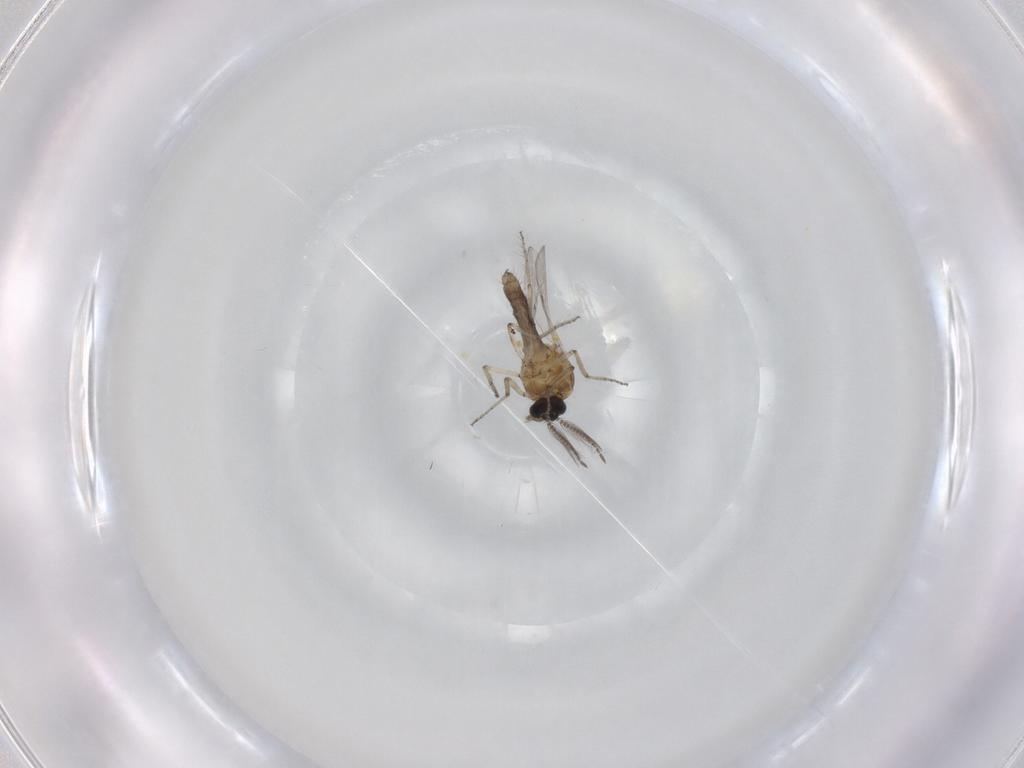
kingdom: Animalia
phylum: Arthropoda
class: Insecta
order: Diptera
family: Ceratopogonidae
